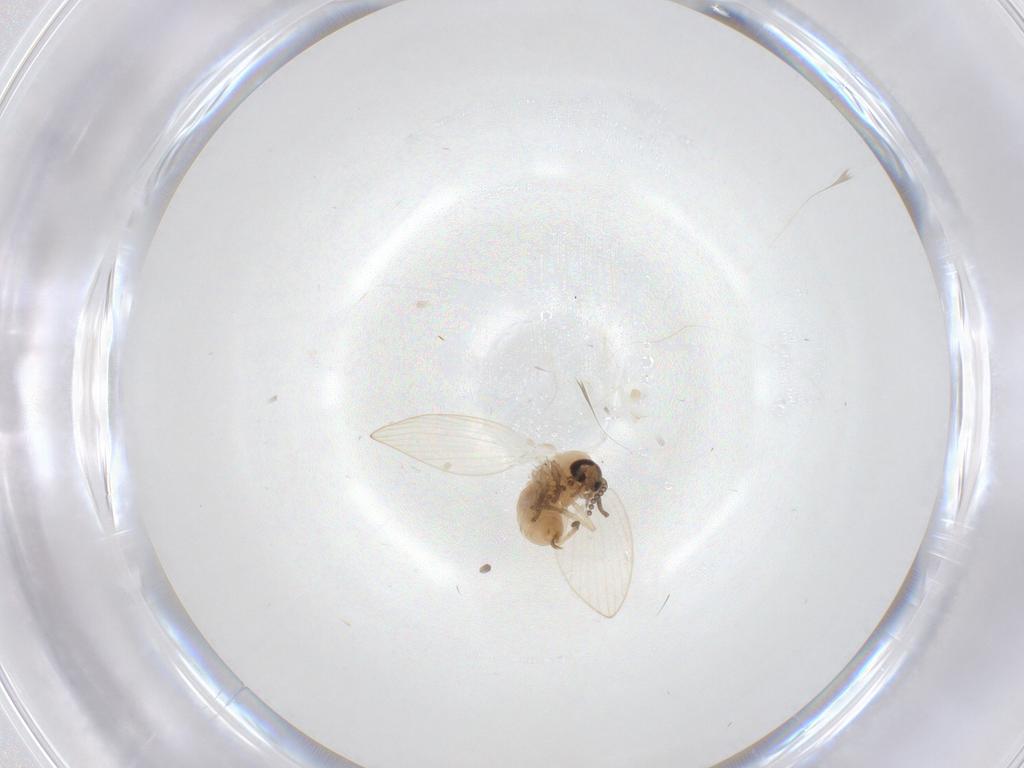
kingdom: Animalia
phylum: Arthropoda
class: Insecta
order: Diptera
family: Psychodidae
